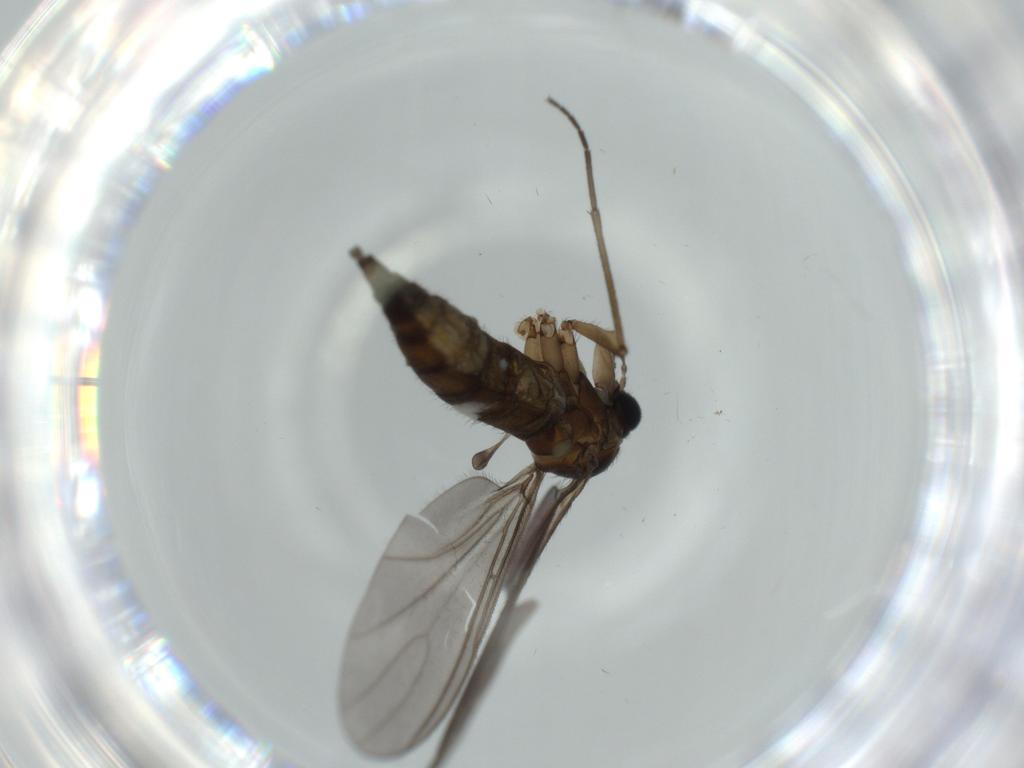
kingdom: Animalia
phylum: Arthropoda
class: Insecta
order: Diptera
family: Sciaridae
